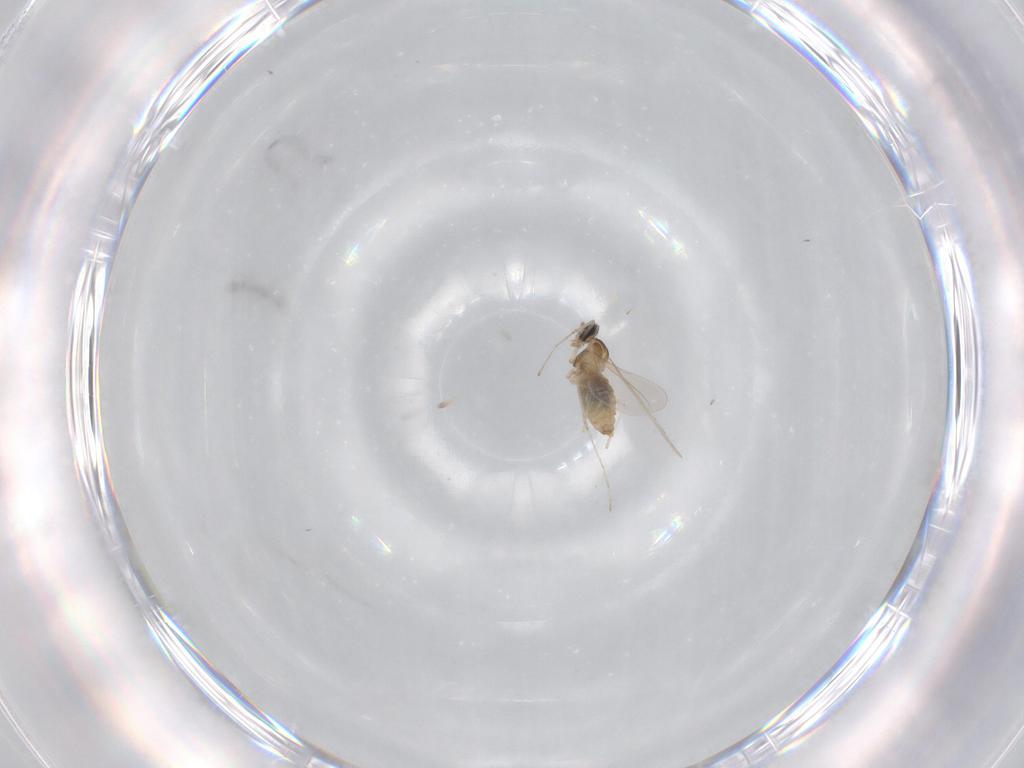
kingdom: Animalia
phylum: Arthropoda
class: Insecta
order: Diptera
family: Cecidomyiidae
